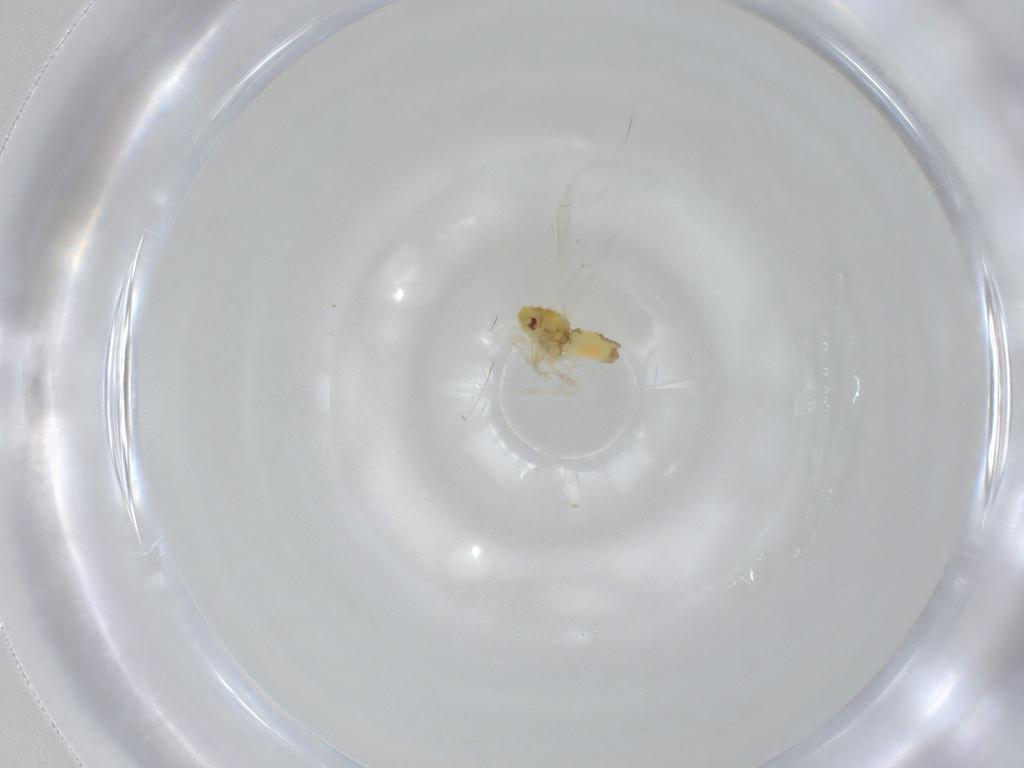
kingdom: Animalia
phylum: Arthropoda
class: Insecta
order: Hemiptera
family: Aleyrodidae
